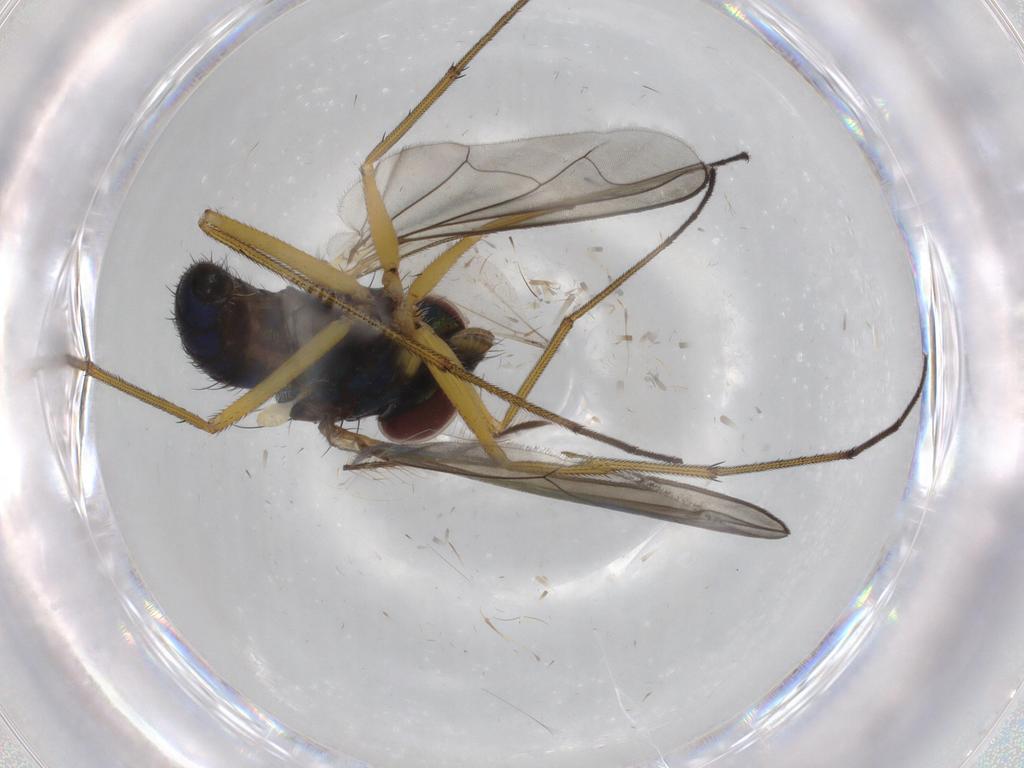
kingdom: Animalia
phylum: Arthropoda
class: Insecta
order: Diptera
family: Dolichopodidae
